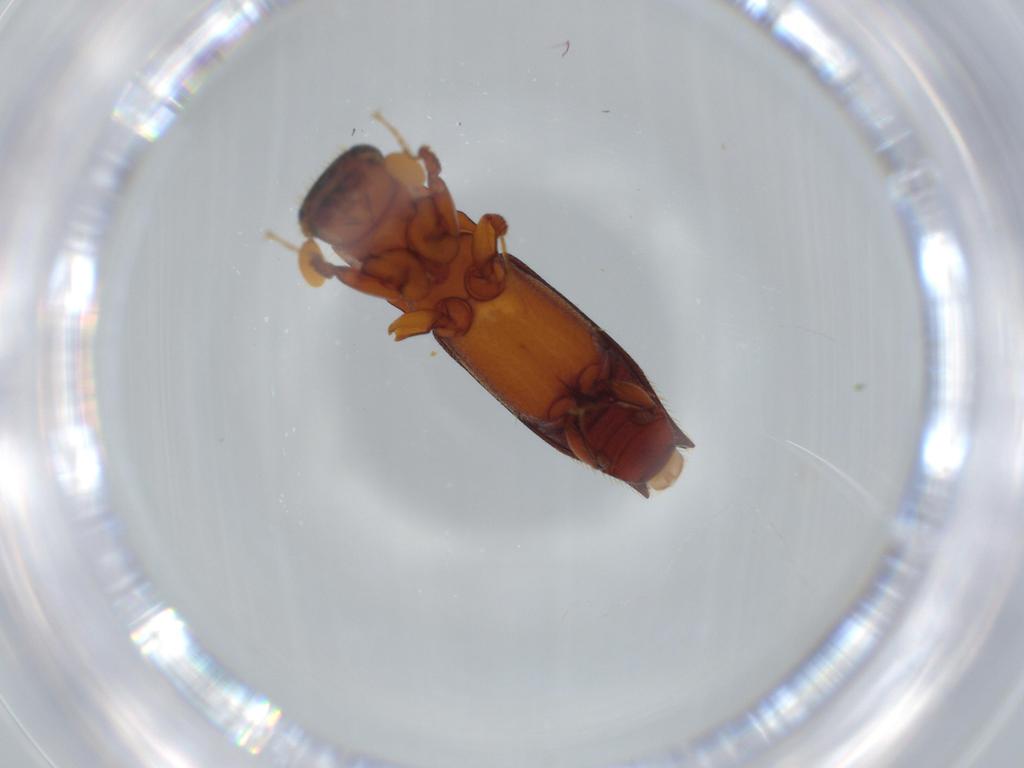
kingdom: Animalia
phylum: Arthropoda
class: Insecta
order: Coleoptera
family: Curculionidae
